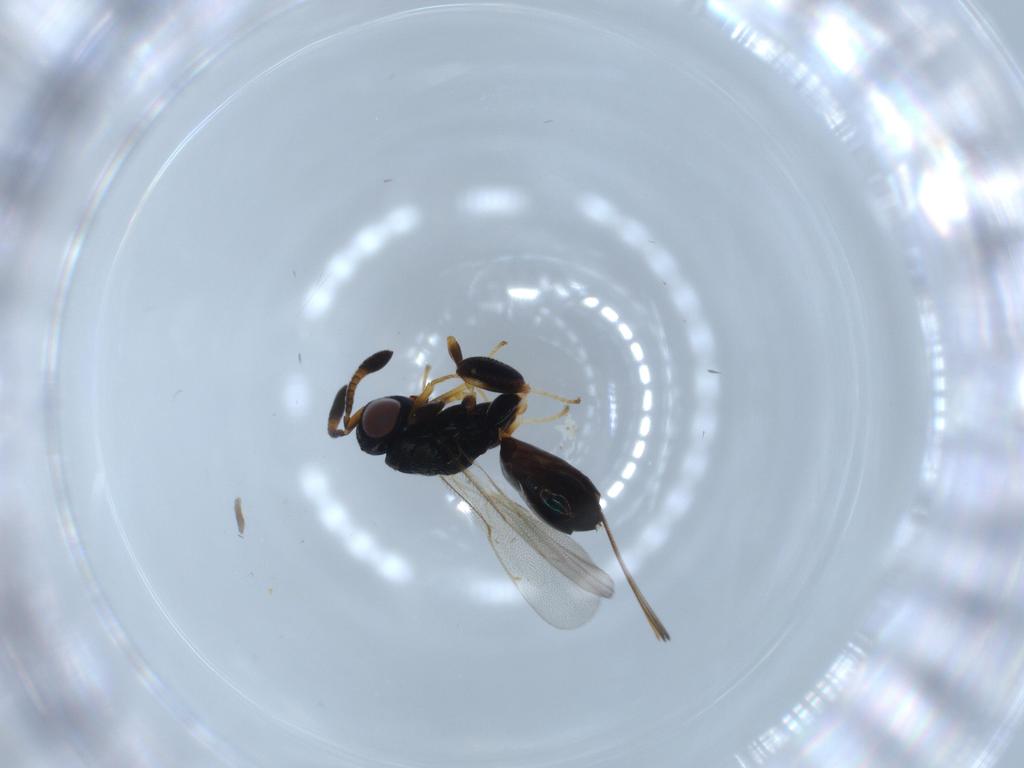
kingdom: Animalia
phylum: Arthropoda
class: Insecta
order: Hymenoptera
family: Torymidae
